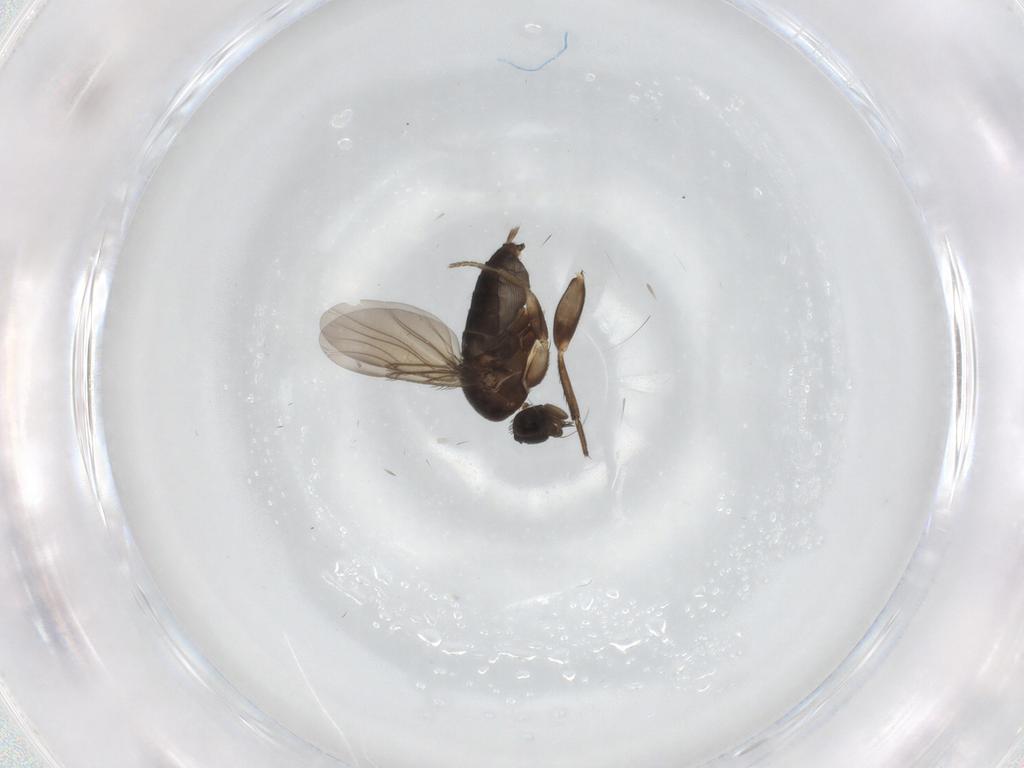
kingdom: Animalia
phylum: Arthropoda
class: Insecta
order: Diptera
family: Phoridae
